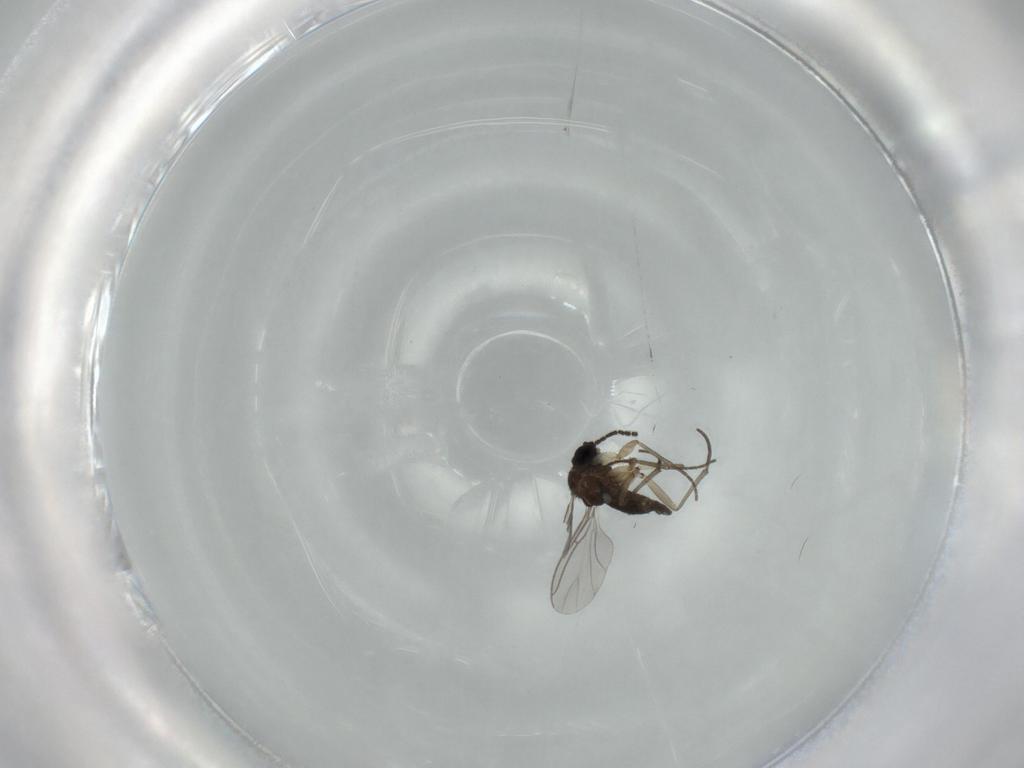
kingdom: Animalia
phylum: Arthropoda
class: Insecta
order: Diptera
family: Sciaridae
